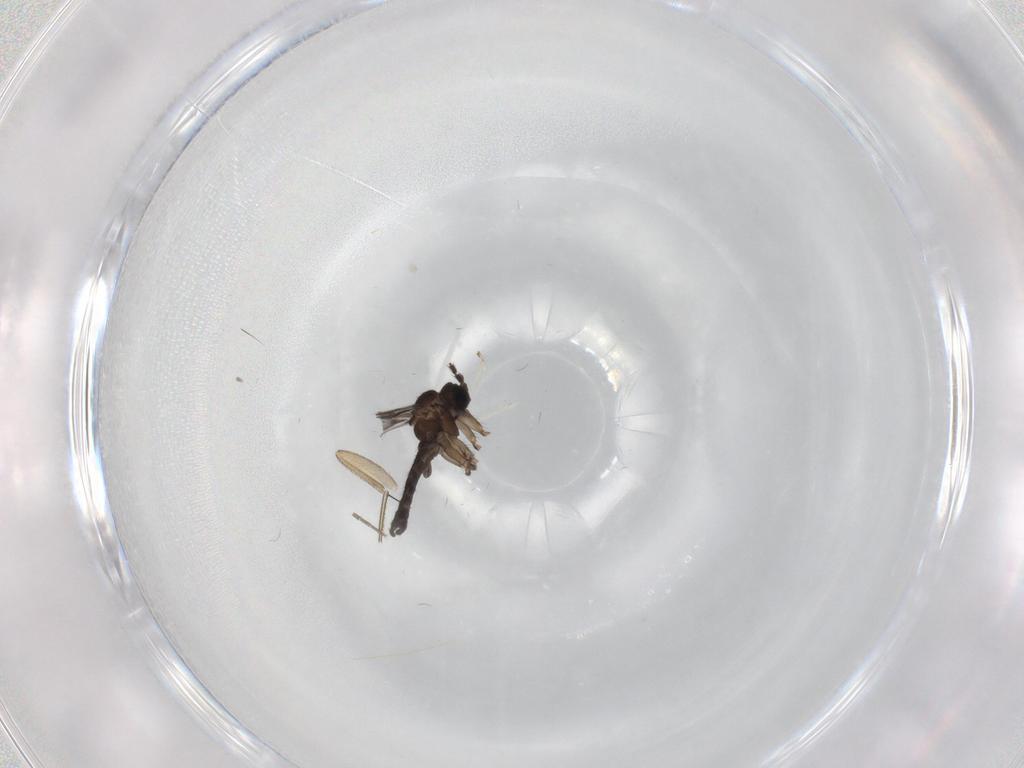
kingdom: Animalia
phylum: Arthropoda
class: Insecta
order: Diptera
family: Sciaridae
